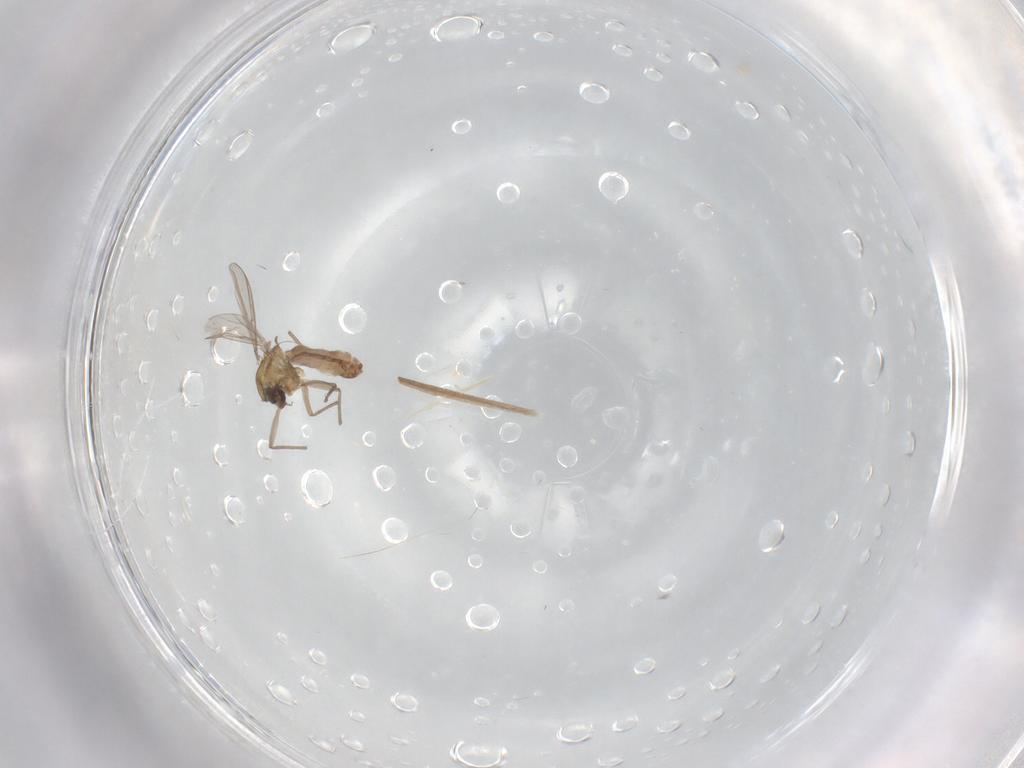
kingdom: Animalia
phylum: Arthropoda
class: Insecta
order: Diptera
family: Chironomidae
